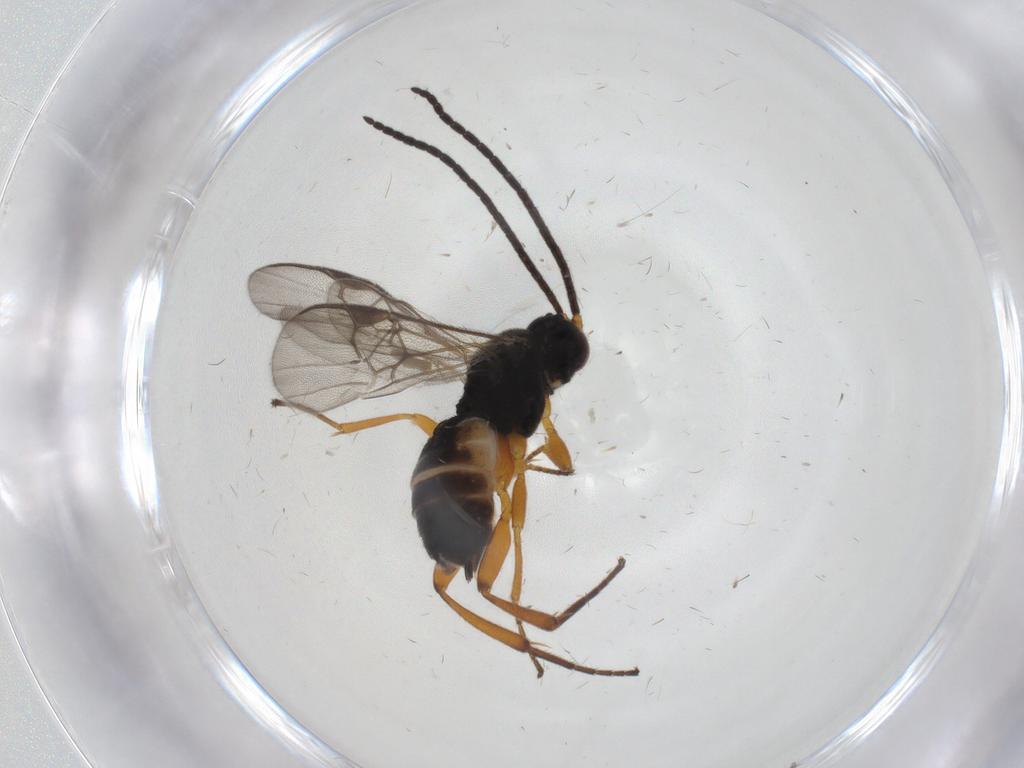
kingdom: Animalia
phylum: Arthropoda
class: Insecta
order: Hymenoptera
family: Braconidae
